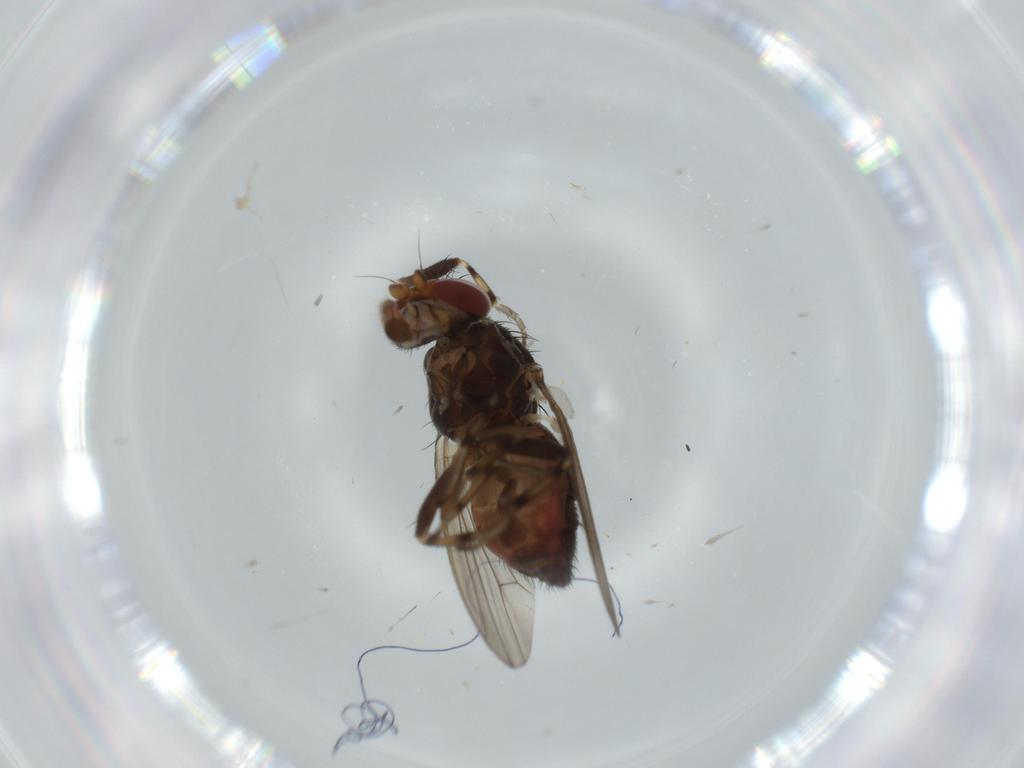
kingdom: Animalia
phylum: Arthropoda
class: Insecta
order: Diptera
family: Heleomyzidae
